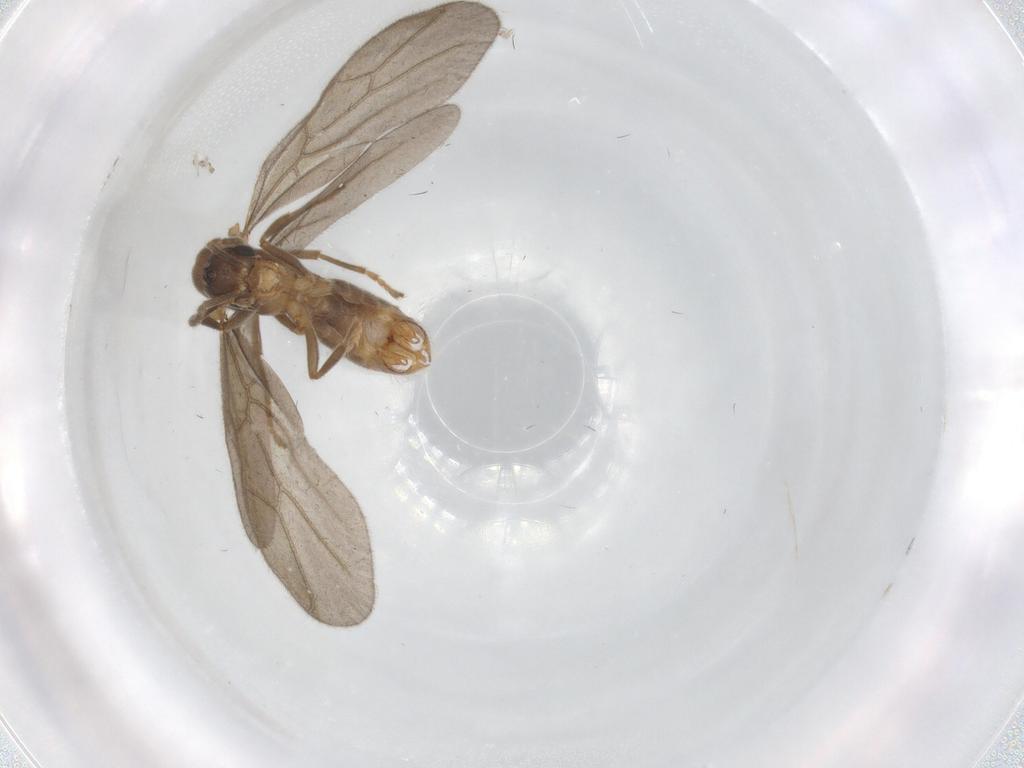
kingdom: Animalia
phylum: Arthropoda
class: Insecta
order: Hymenoptera
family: Formicidae
